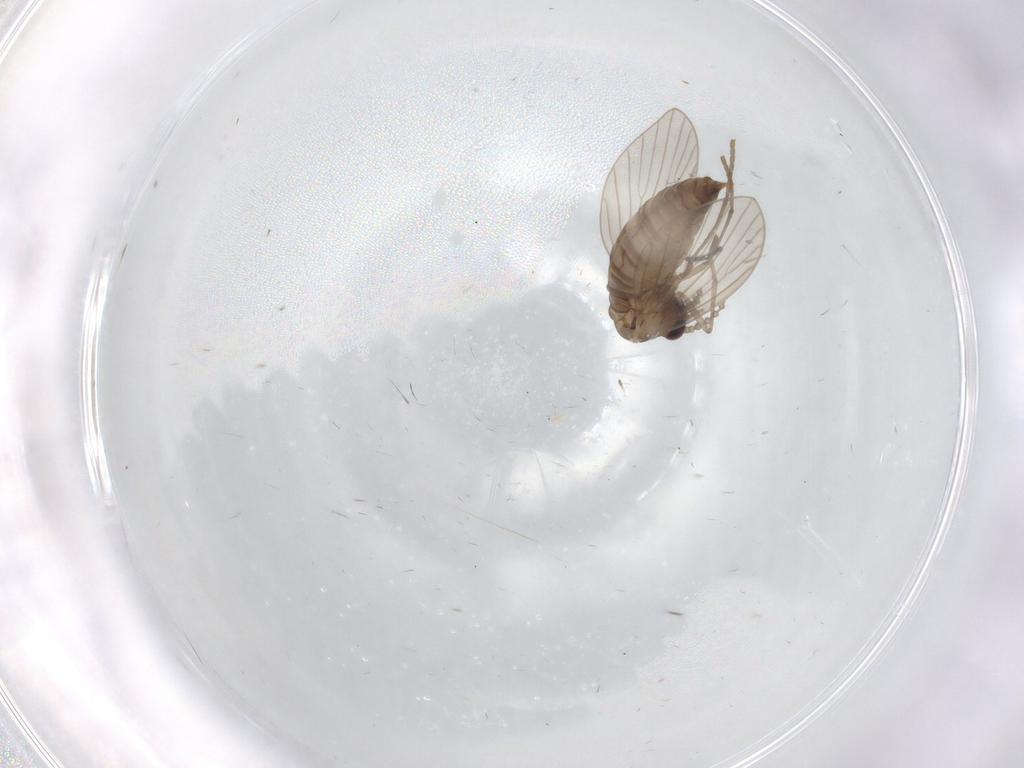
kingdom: Animalia
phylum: Arthropoda
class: Insecta
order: Diptera
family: Psychodidae
